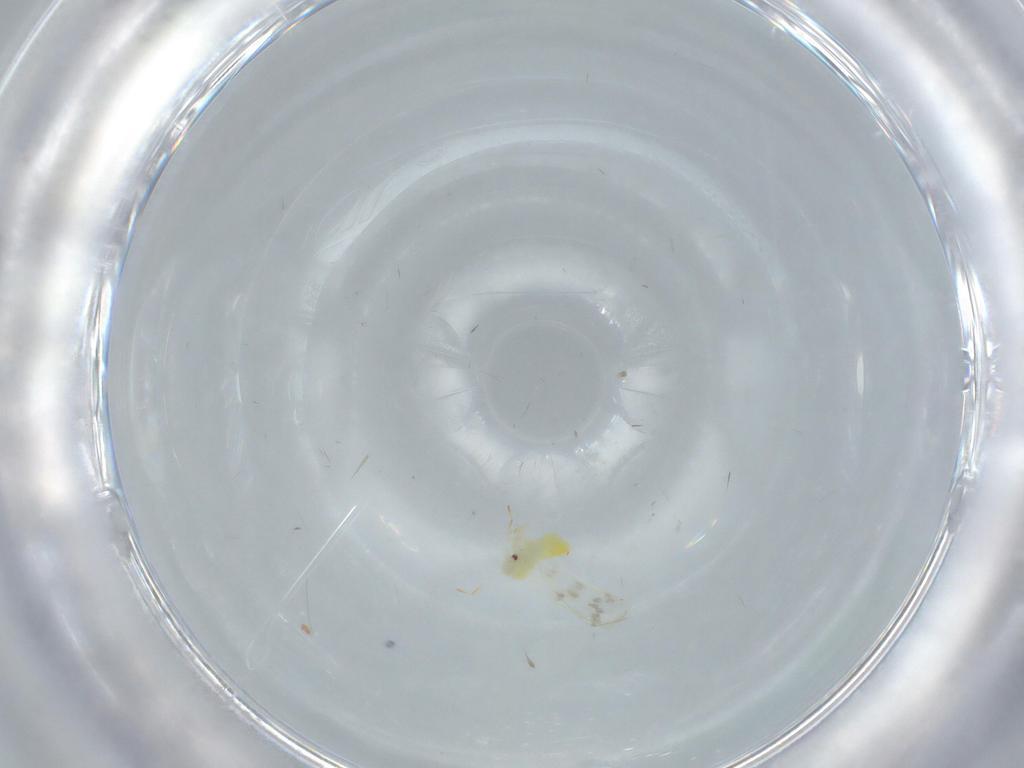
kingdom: Animalia
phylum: Arthropoda
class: Insecta
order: Hemiptera
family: Aleyrodidae
